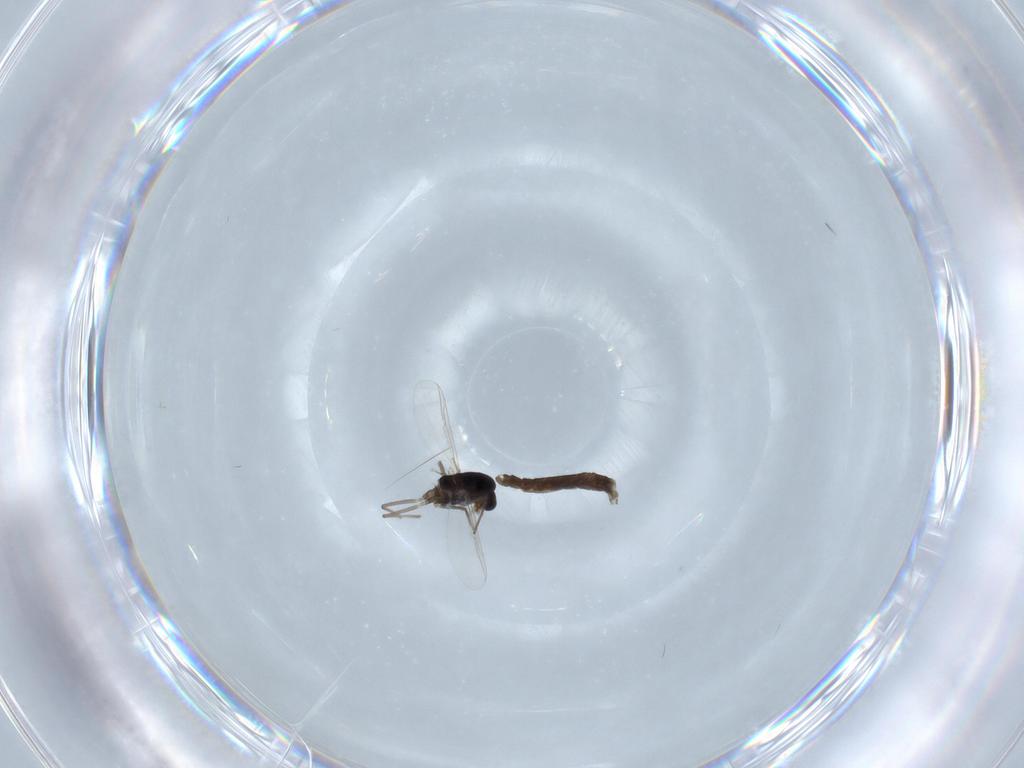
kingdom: Animalia
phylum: Arthropoda
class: Insecta
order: Diptera
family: Chironomidae
